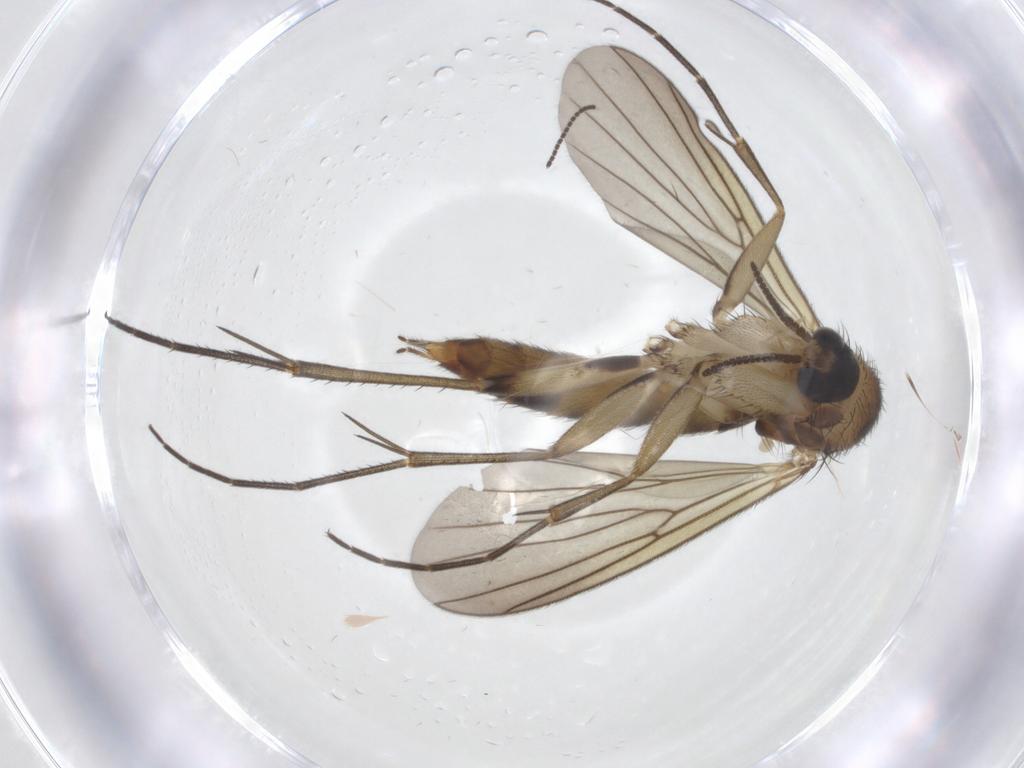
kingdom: Animalia
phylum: Arthropoda
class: Insecta
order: Diptera
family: Mycetophilidae
